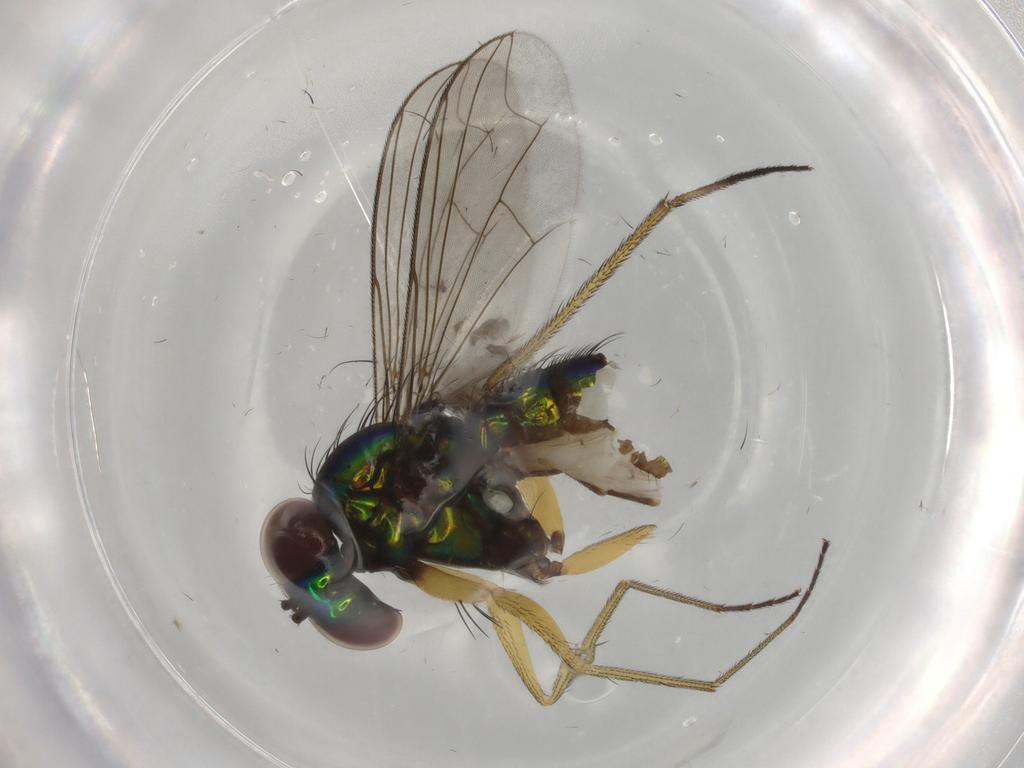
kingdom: Animalia
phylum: Arthropoda
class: Insecta
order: Diptera
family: Dolichopodidae
